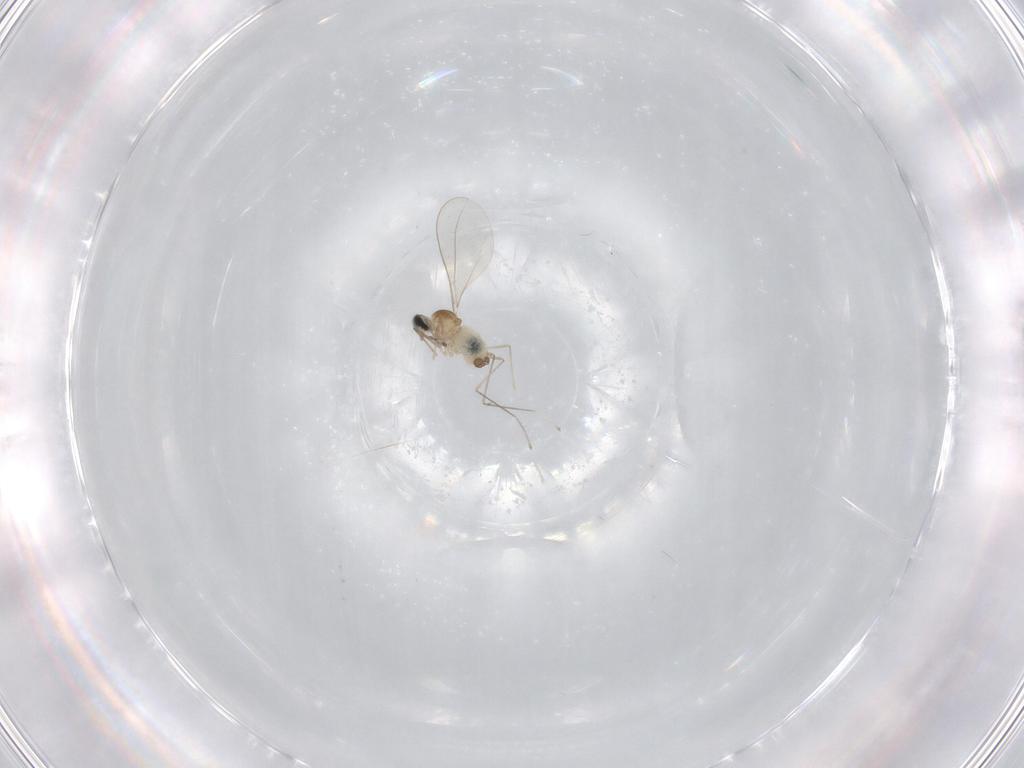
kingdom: Animalia
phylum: Arthropoda
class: Insecta
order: Diptera
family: Cecidomyiidae
